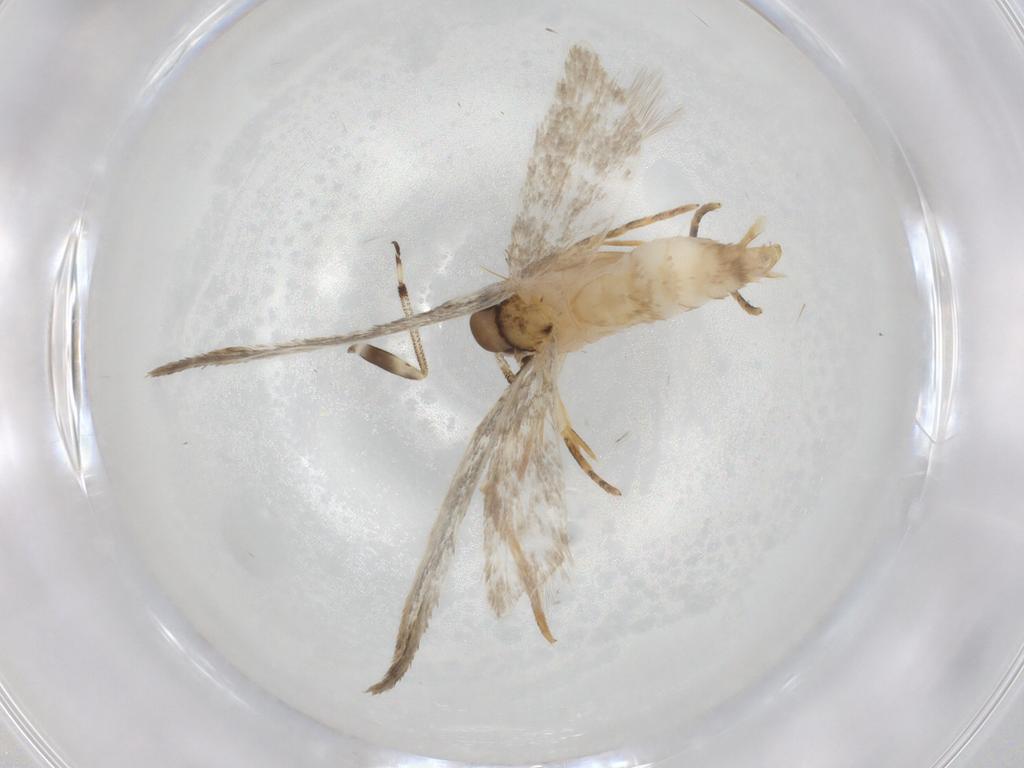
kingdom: Animalia
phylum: Arthropoda
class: Insecta
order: Lepidoptera
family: Autostichidae
